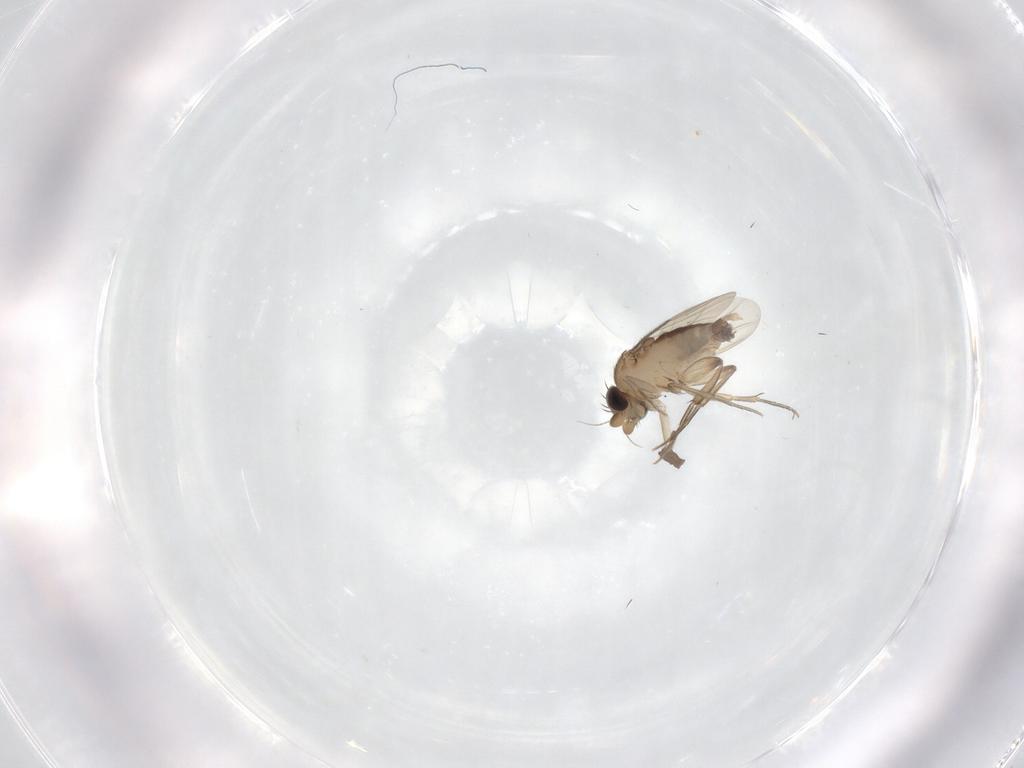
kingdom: Animalia
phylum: Arthropoda
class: Insecta
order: Diptera
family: Phoridae
